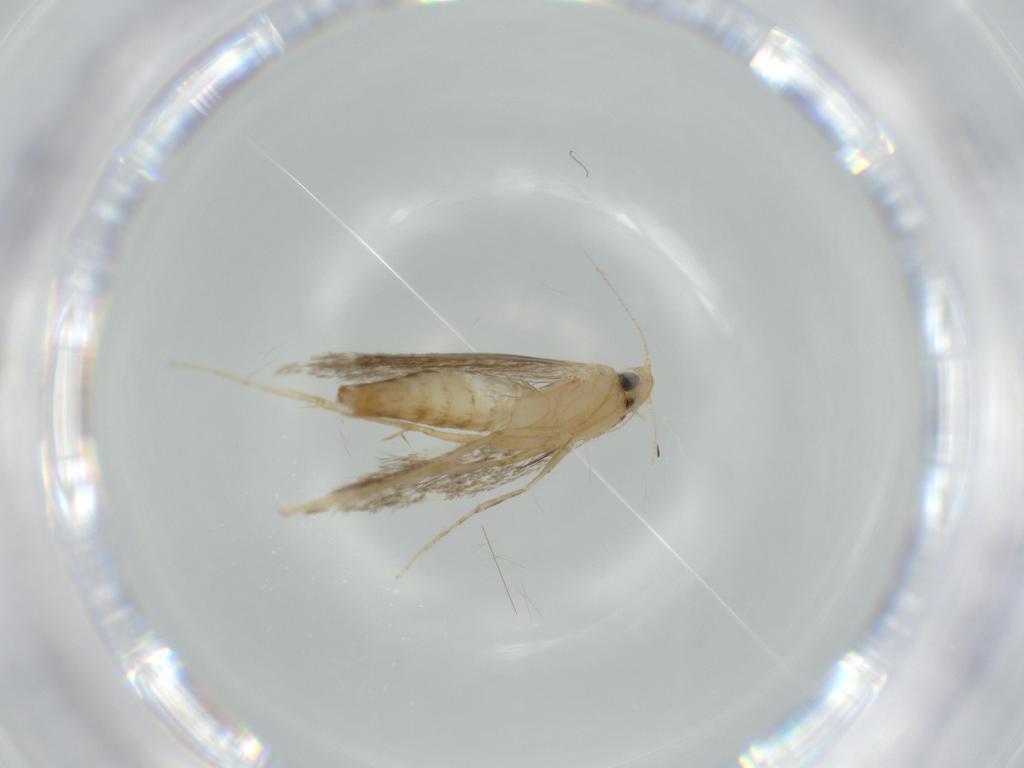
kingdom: Animalia
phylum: Arthropoda
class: Insecta
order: Lepidoptera
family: Tischeriidae
